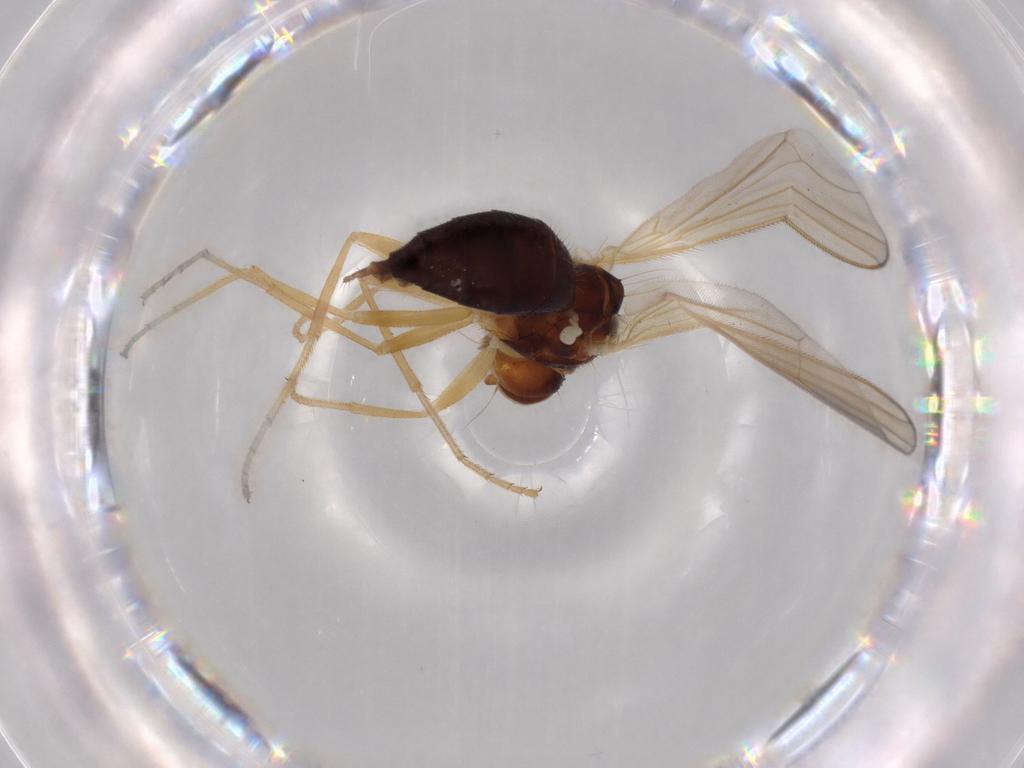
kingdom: Animalia
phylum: Arthropoda
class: Insecta
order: Diptera
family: Psilidae
